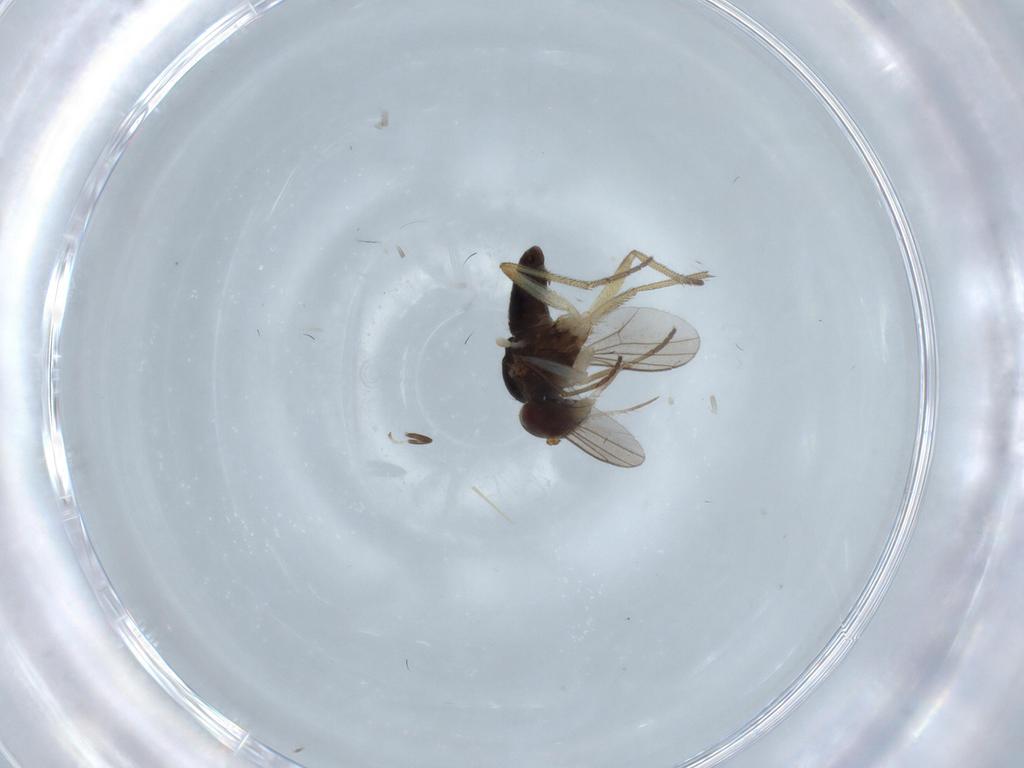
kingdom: Animalia
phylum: Arthropoda
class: Insecta
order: Diptera
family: Dolichopodidae
